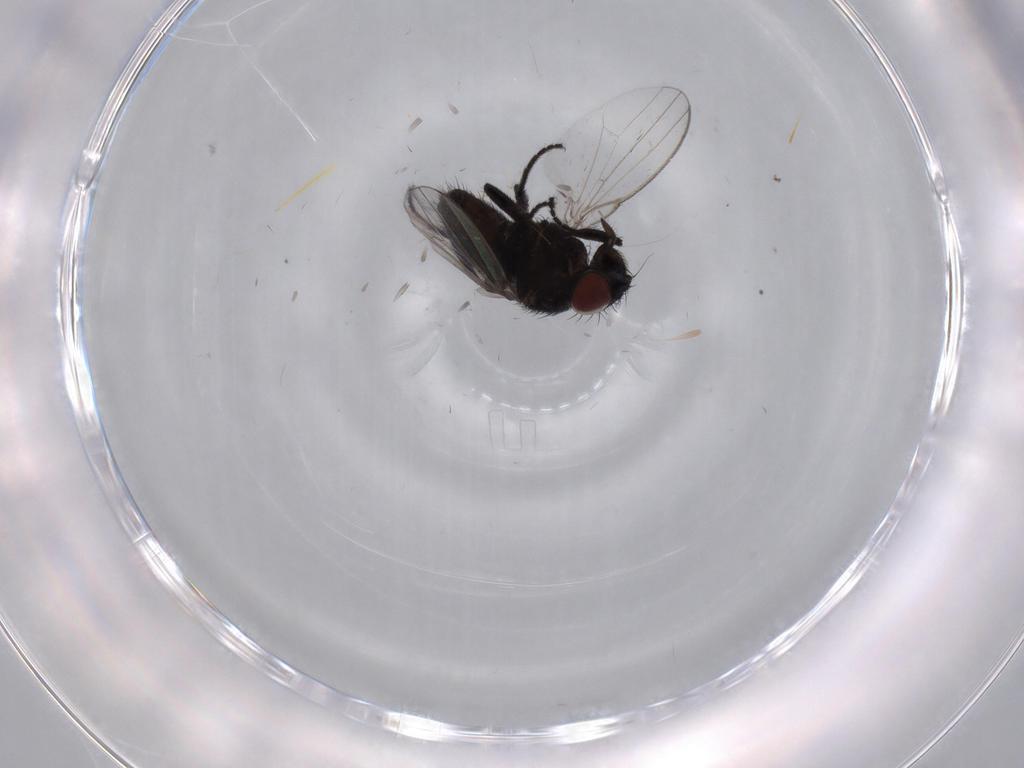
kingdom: Animalia
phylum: Arthropoda
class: Insecta
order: Diptera
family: Milichiidae
